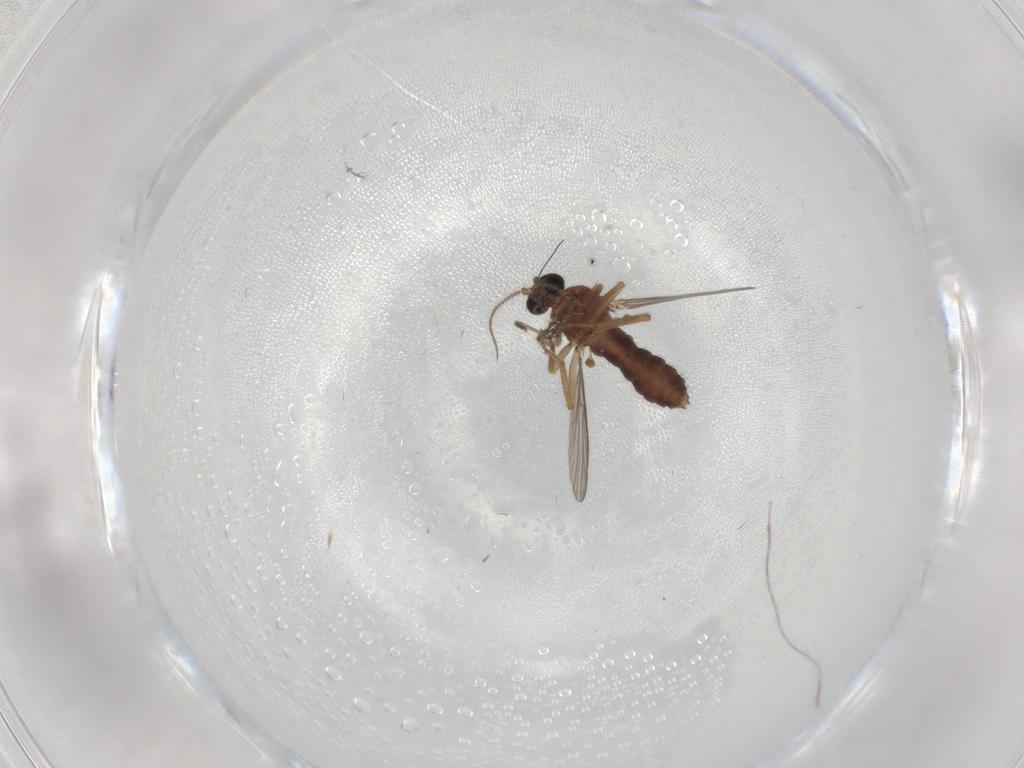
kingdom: Animalia
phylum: Arthropoda
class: Insecta
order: Diptera
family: Ceratopogonidae
